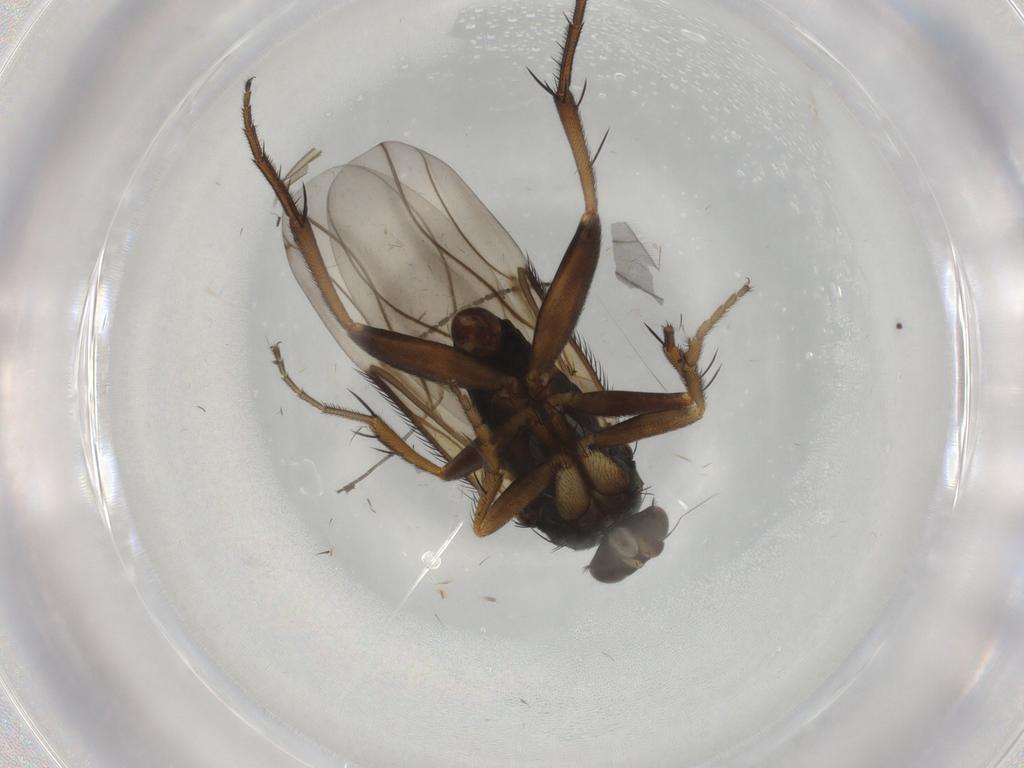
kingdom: Animalia
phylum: Arthropoda
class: Insecta
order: Diptera
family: Phoridae
